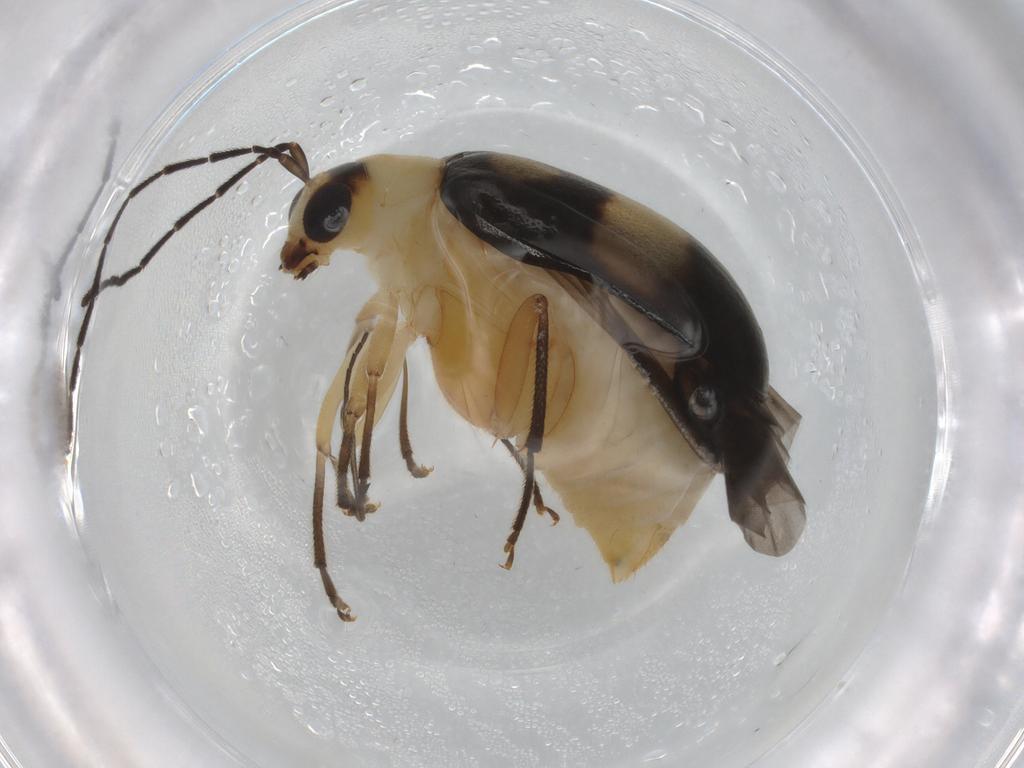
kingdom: Animalia
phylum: Arthropoda
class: Insecta
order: Coleoptera
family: Chrysomelidae
